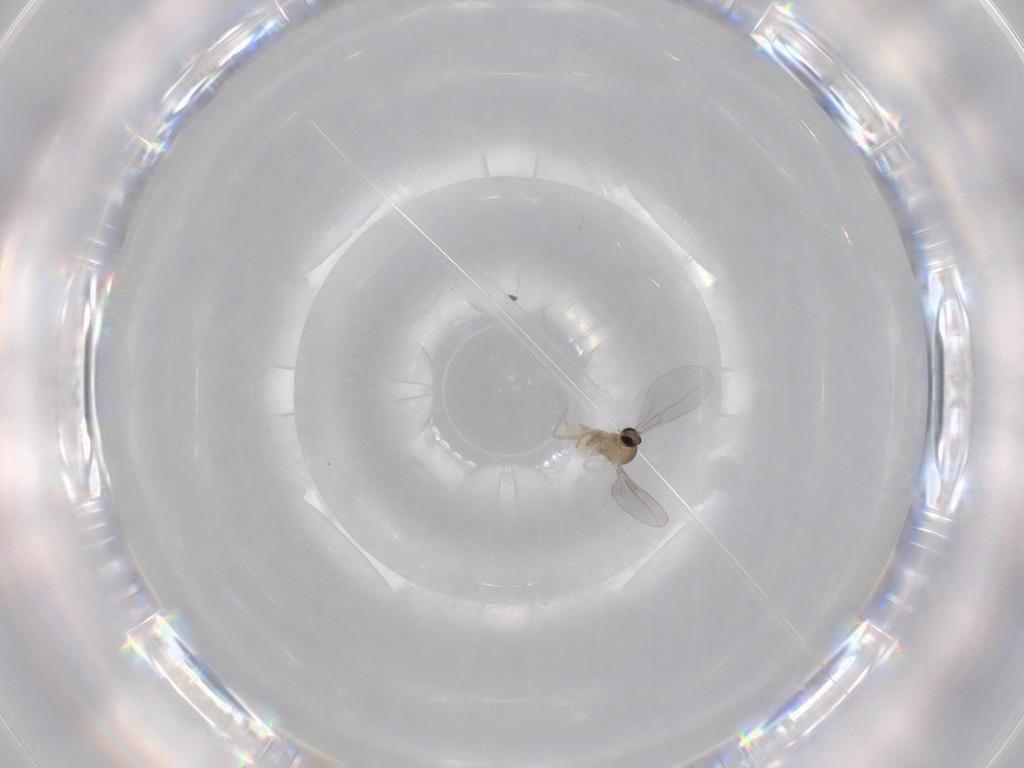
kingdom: Animalia
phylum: Arthropoda
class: Insecta
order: Diptera
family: Cecidomyiidae
